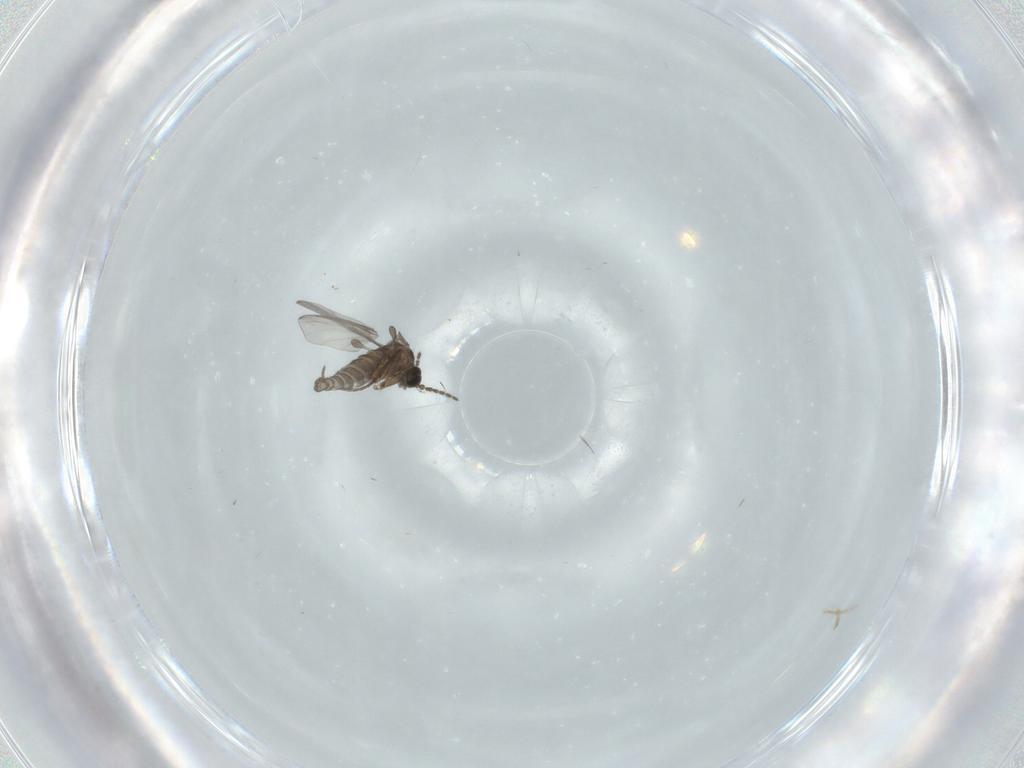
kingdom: Animalia
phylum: Arthropoda
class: Insecta
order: Diptera
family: Sciaridae
